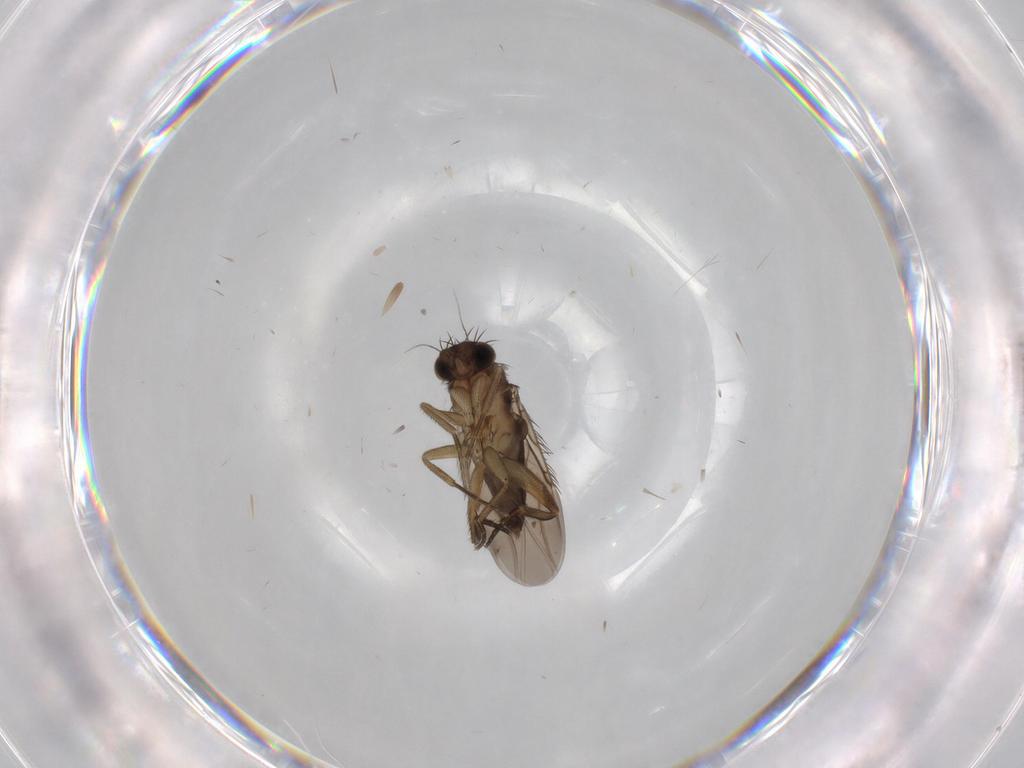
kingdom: Animalia
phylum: Arthropoda
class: Insecta
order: Diptera
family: Phoridae
